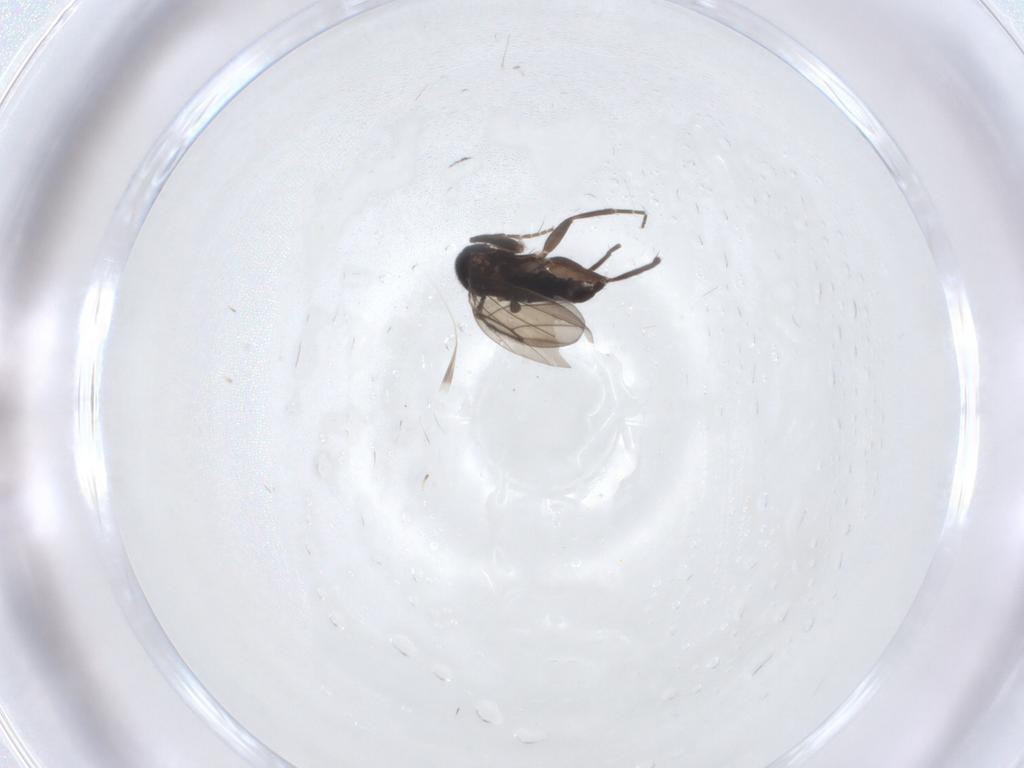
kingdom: Animalia
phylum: Arthropoda
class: Insecta
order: Diptera
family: Phoridae
